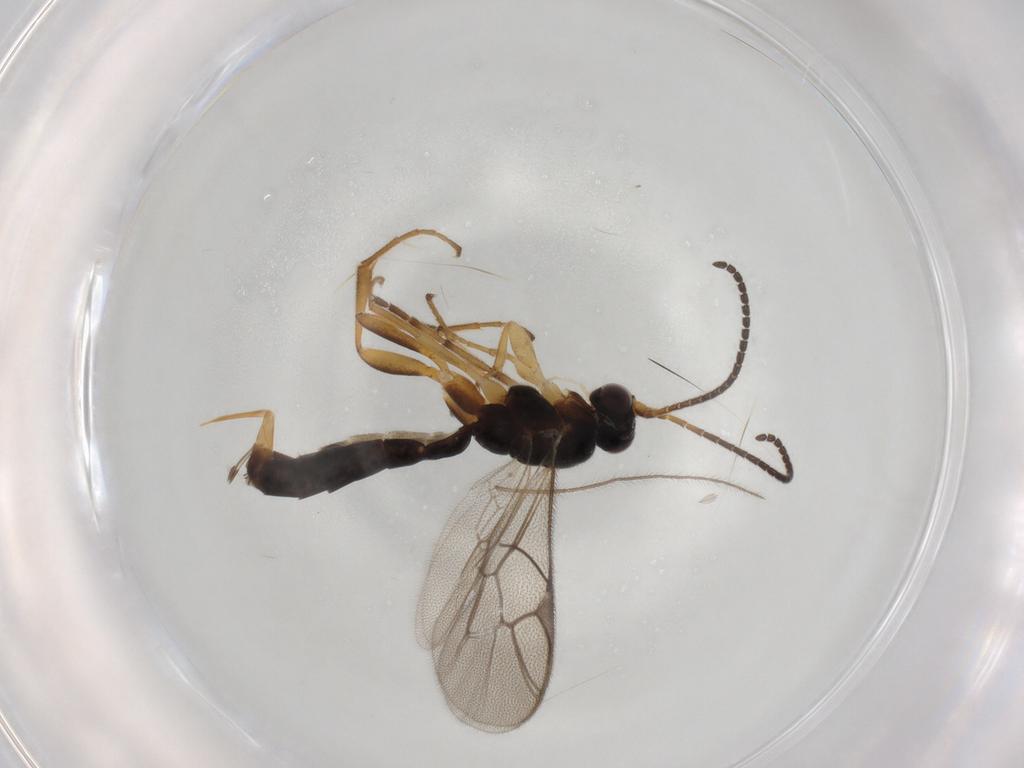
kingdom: Animalia
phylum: Arthropoda
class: Insecta
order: Hymenoptera
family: Ichneumonidae
